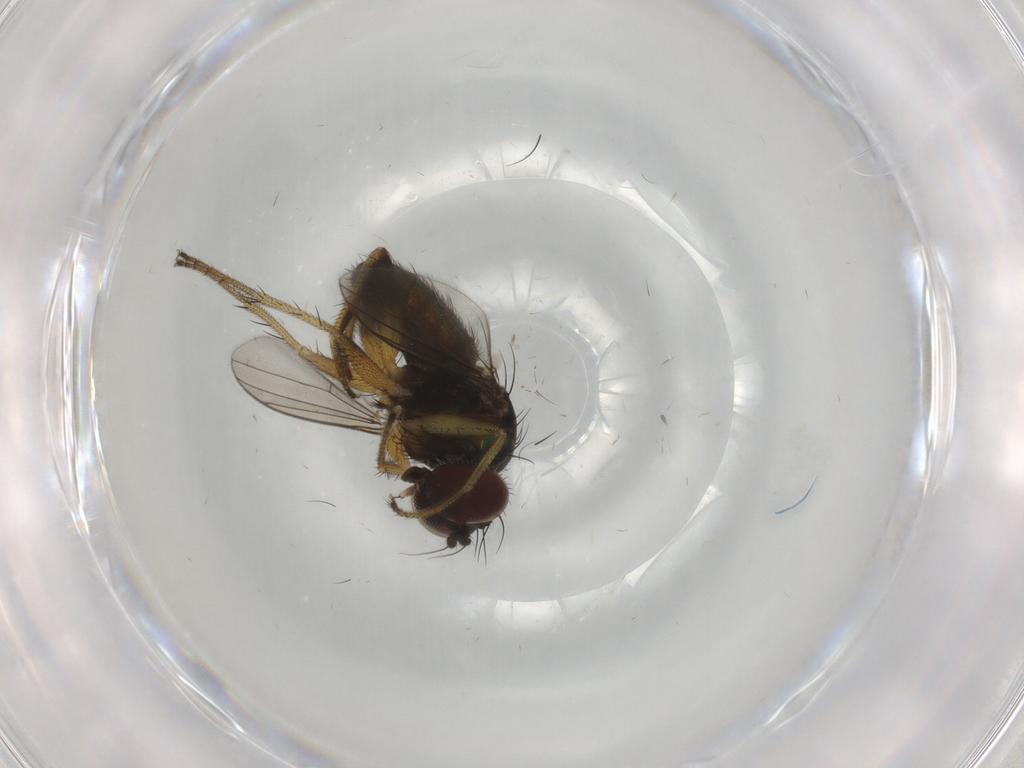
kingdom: Animalia
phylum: Arthropoda
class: Insecta
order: Diptera
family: Dolichopodidae
